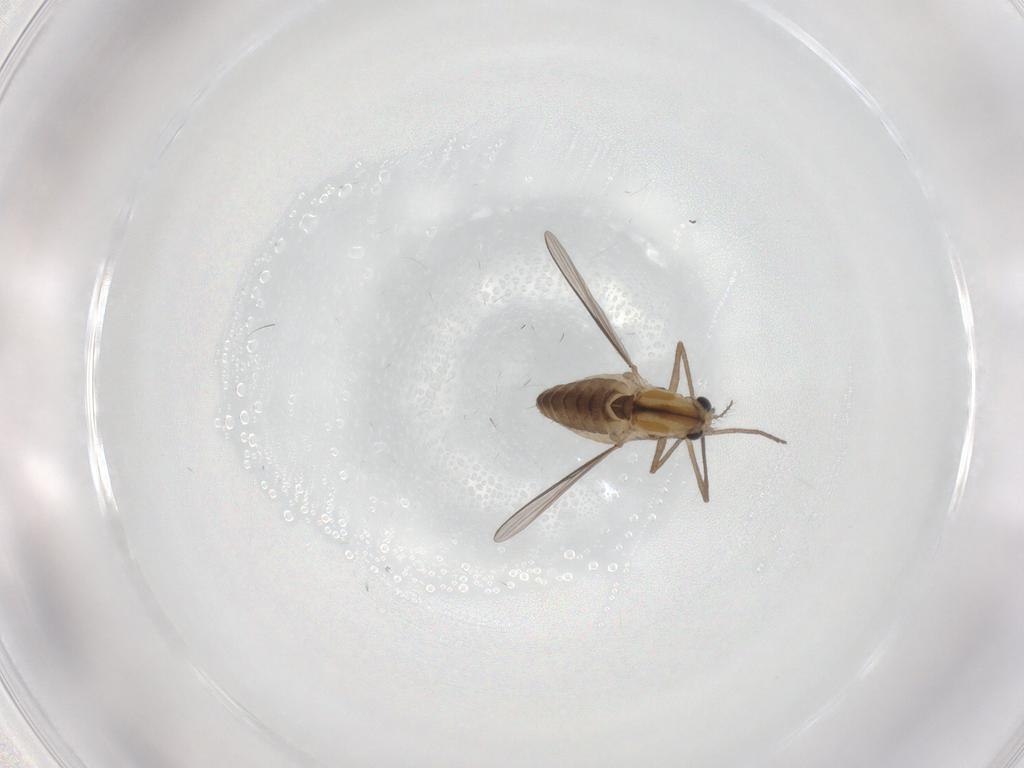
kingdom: Animalia
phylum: Arthropoda
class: Insecta
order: Diptera
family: Chironomidae
